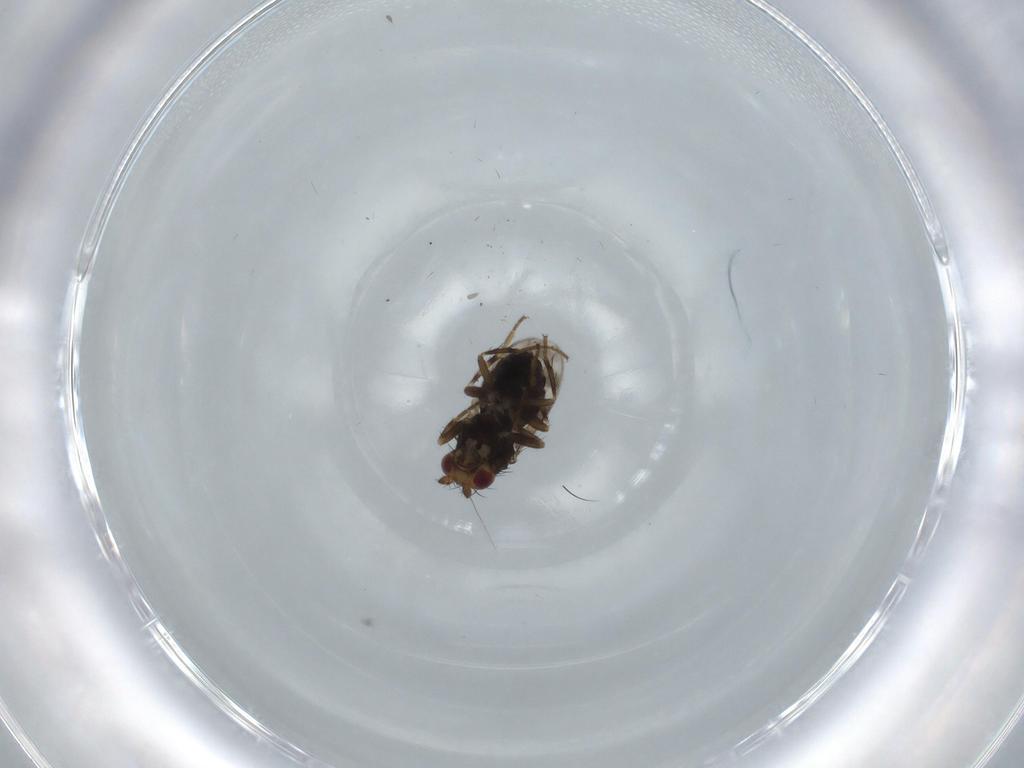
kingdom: Animalia
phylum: Arthropoda
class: Insecta
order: Diptera
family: Sphaeroceridae
